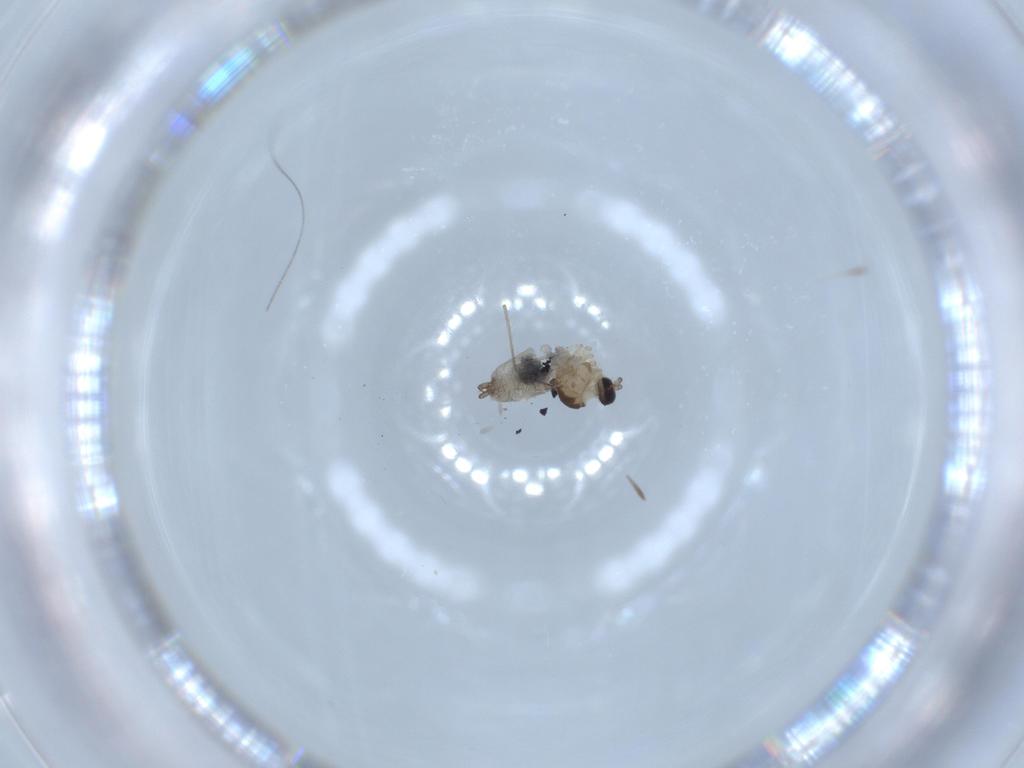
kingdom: Animalia
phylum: Arthropoda
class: Insecta
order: Diptera
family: Cecidomyiidae
